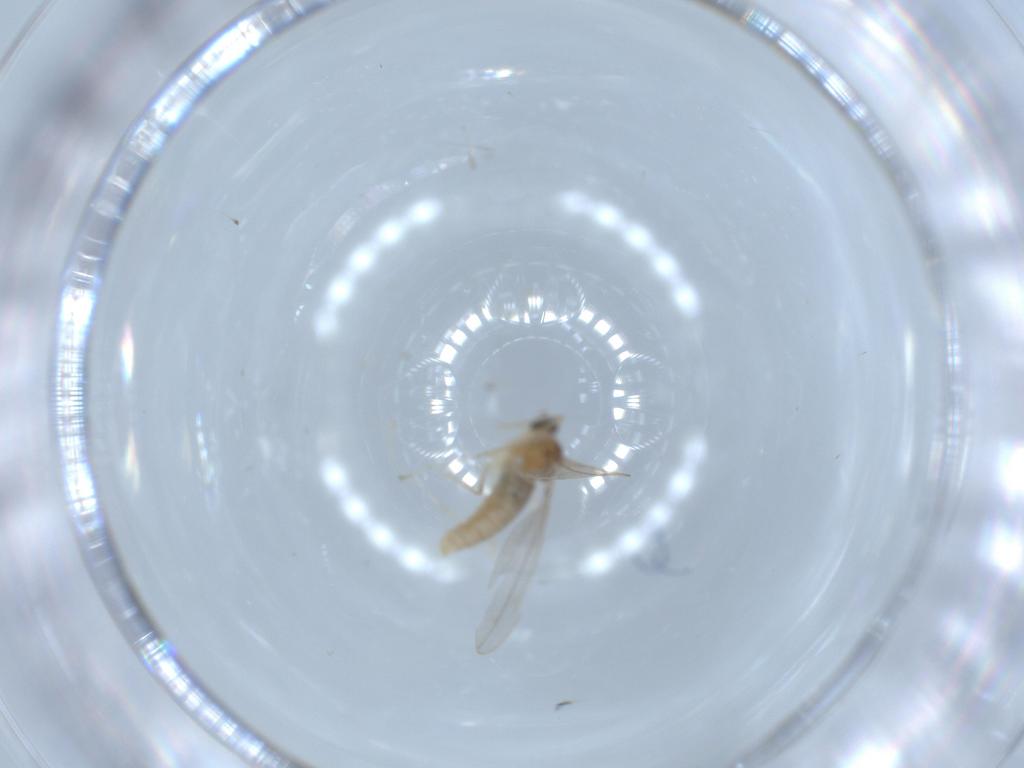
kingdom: Animalia
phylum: Arthropoda
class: Insecta
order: Diptera
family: Cecidomyiidae
